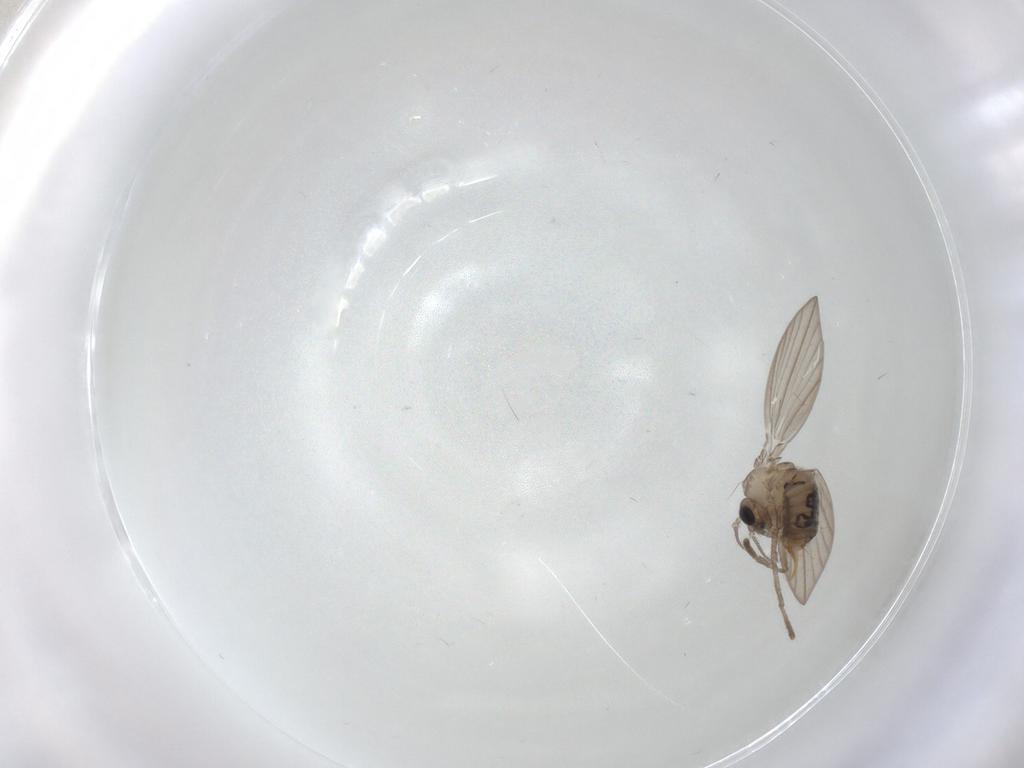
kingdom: Animalia
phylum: Arthropoda
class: Insecta
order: Diptera
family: Psychodidae
